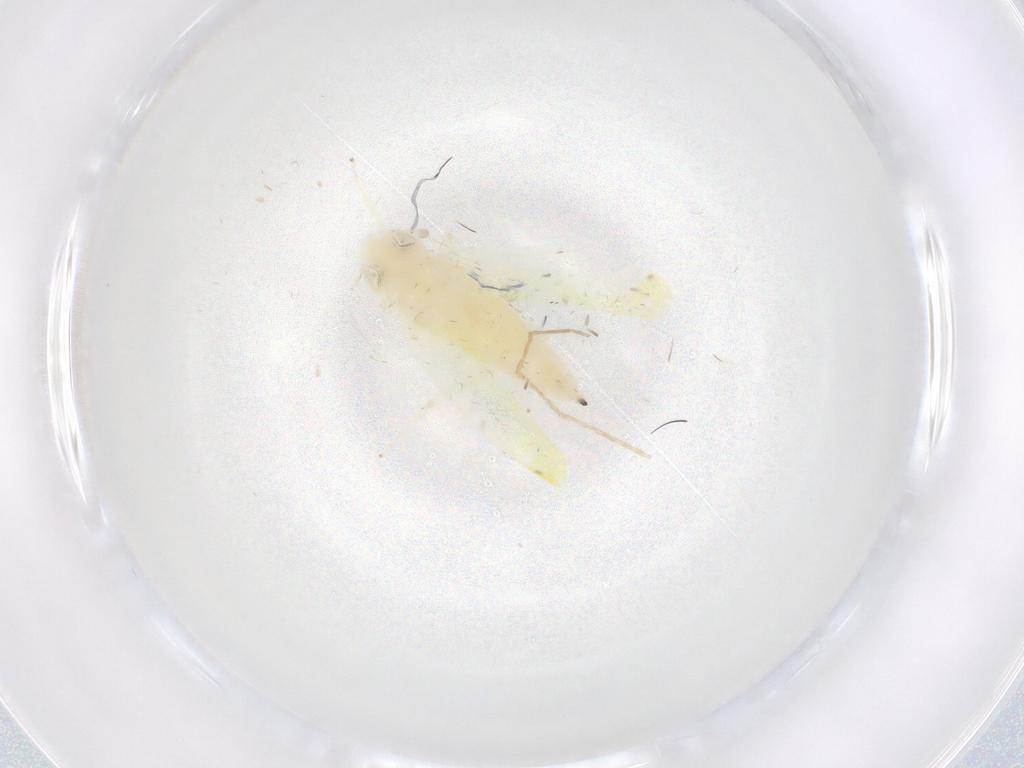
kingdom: Animalia
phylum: Arthropoda
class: Insecta
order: Hemiptera
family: Cicadellidae
